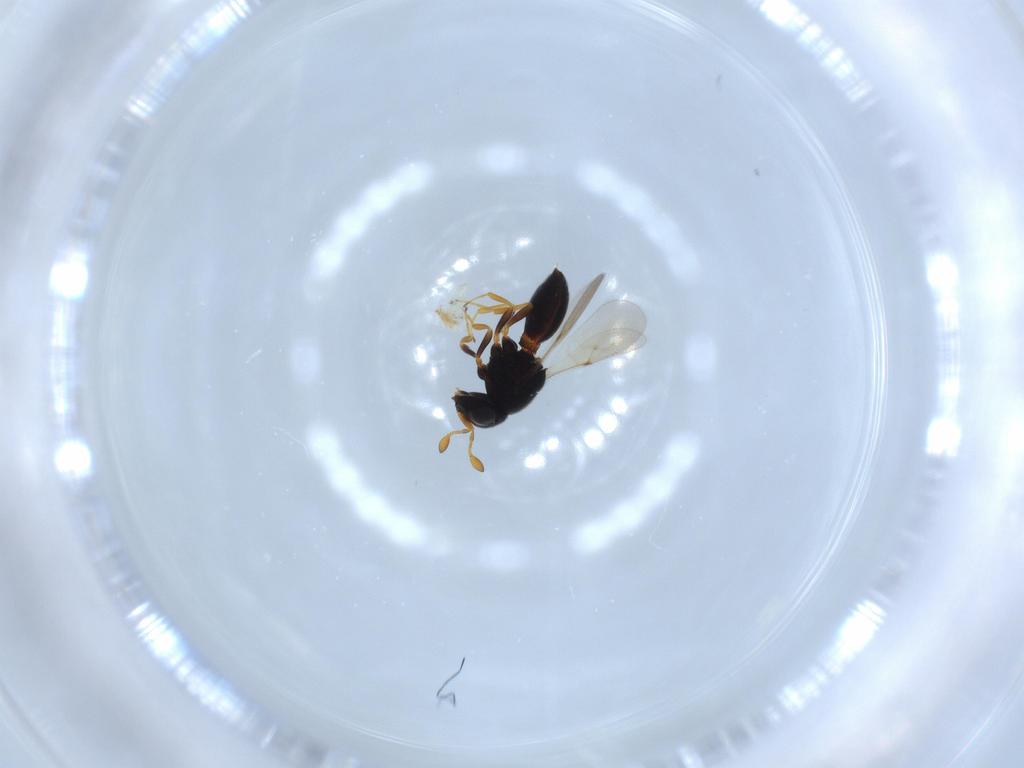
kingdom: Animalia
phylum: Arthropoda
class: Insecta
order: Hymenoptera
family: Scelionidae
